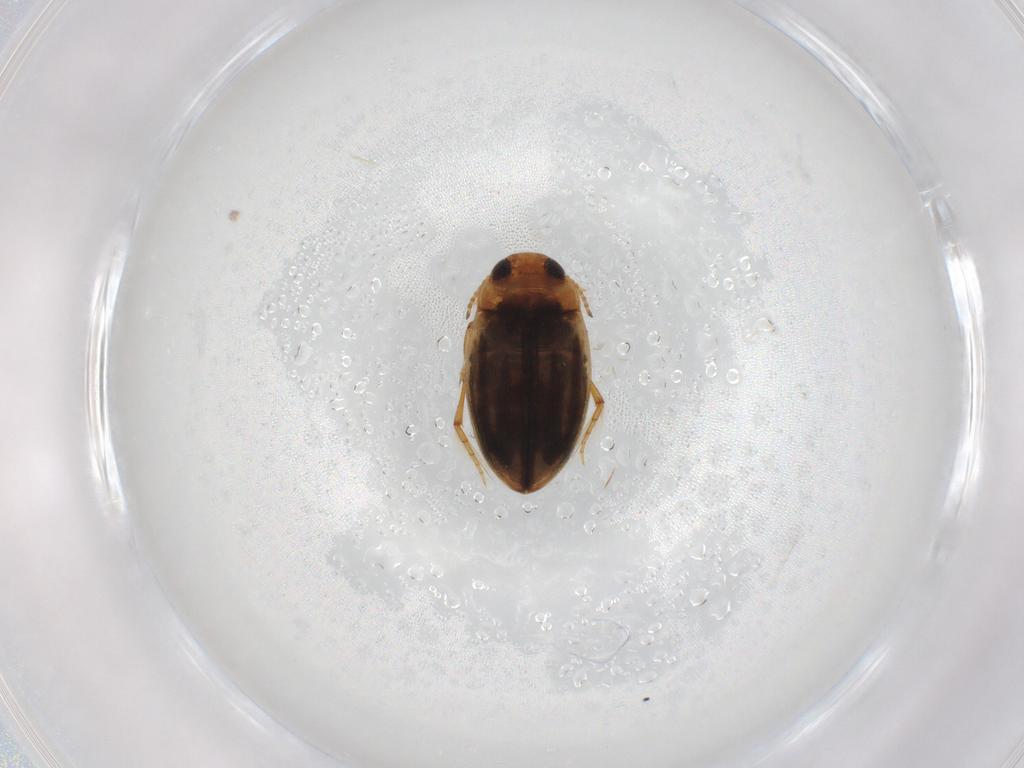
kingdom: Animalia
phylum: Arthropoda
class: Insecta
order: Coleoptera
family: Dytiscidae
